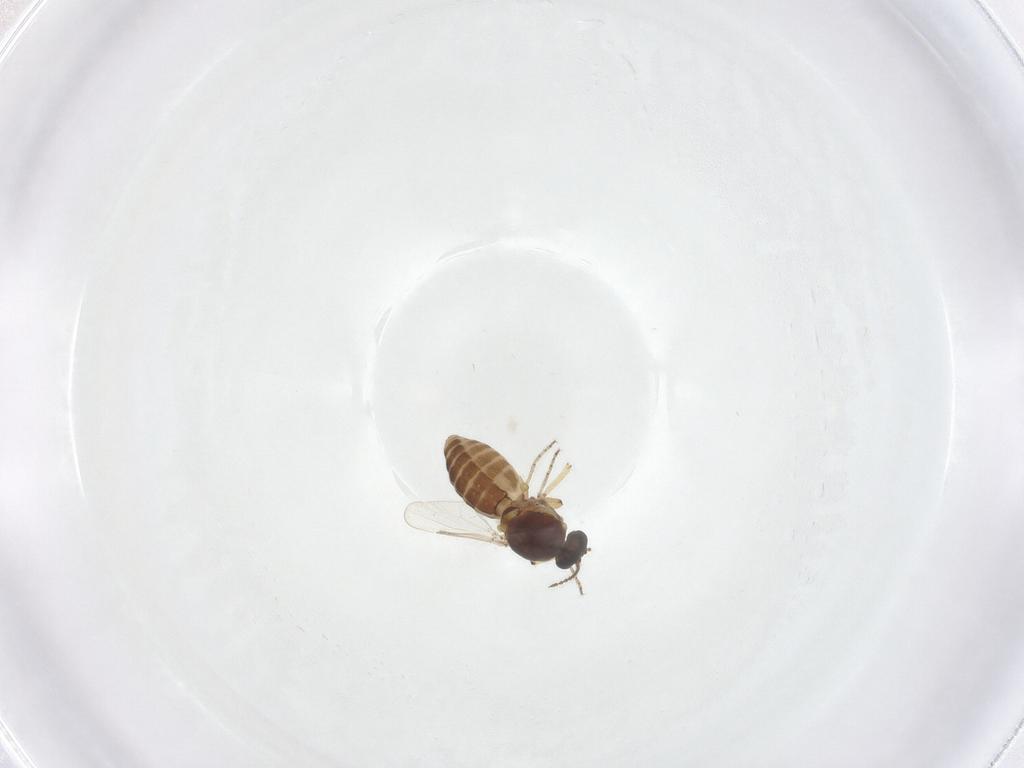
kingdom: Animalia
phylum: Arthropoda
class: Insecta
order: Diptera
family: Ceratopogonidae
